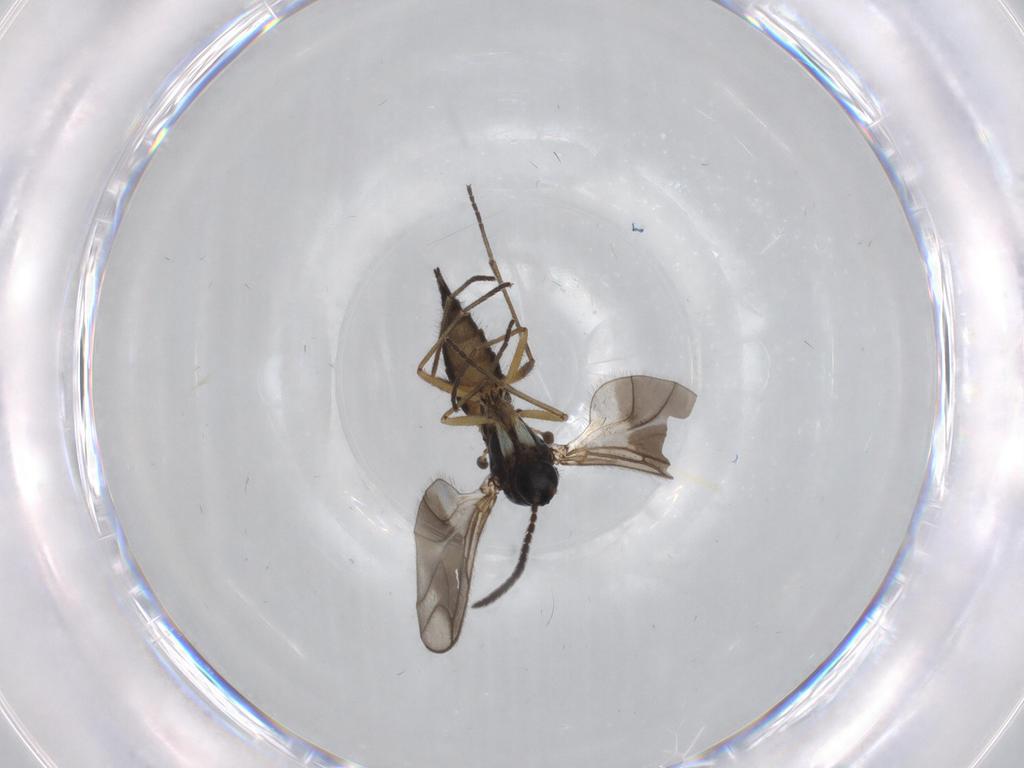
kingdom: Animalia
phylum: Arthropoda
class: Insecta
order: Diptera
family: Sciaridae
